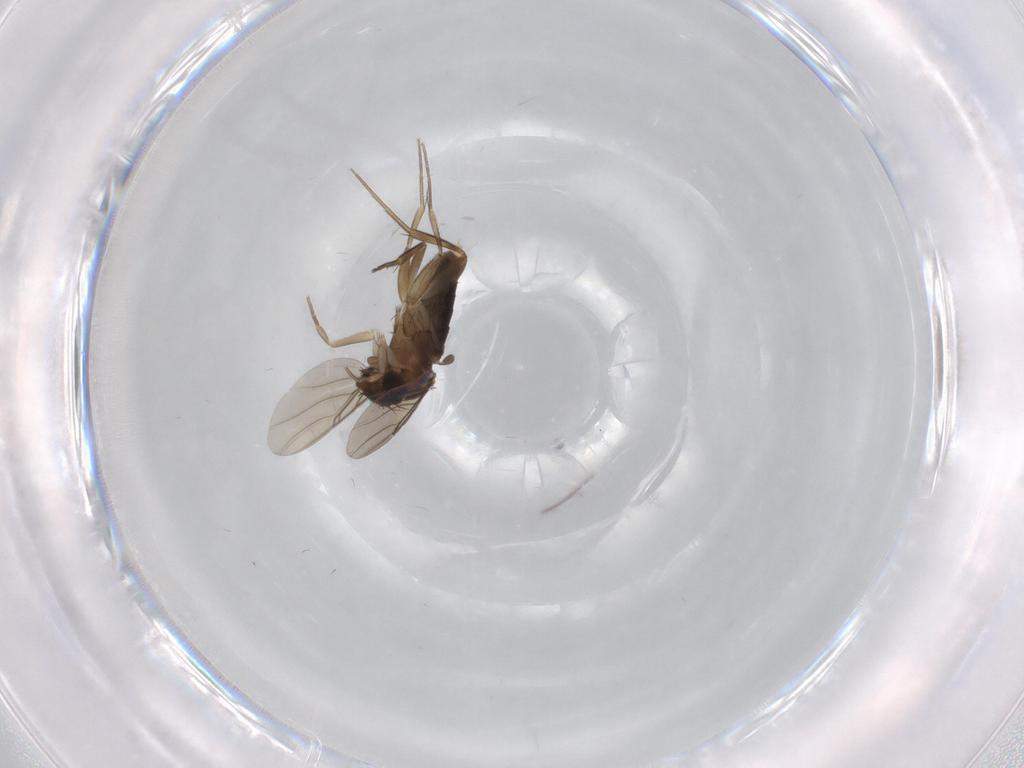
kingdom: Animalia
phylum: Arthropoda
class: Insecta
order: Diptera
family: Phoridae
